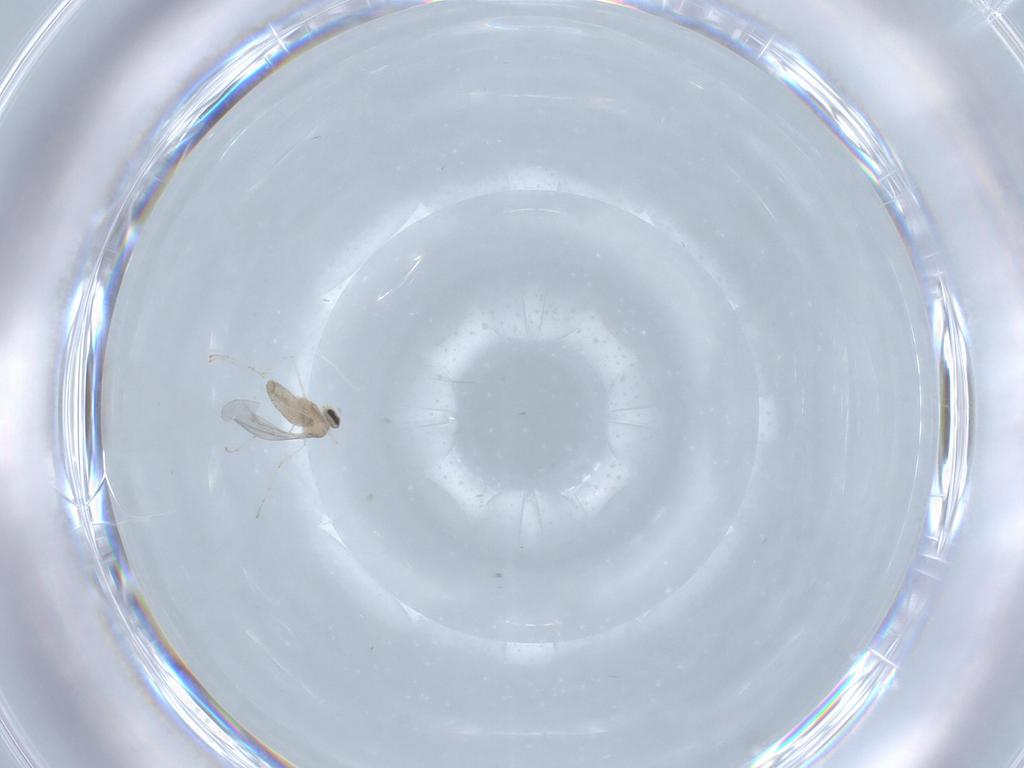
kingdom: Animalia
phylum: Arthropoda
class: Insecta
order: Diptera
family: Cecidomyiidae
